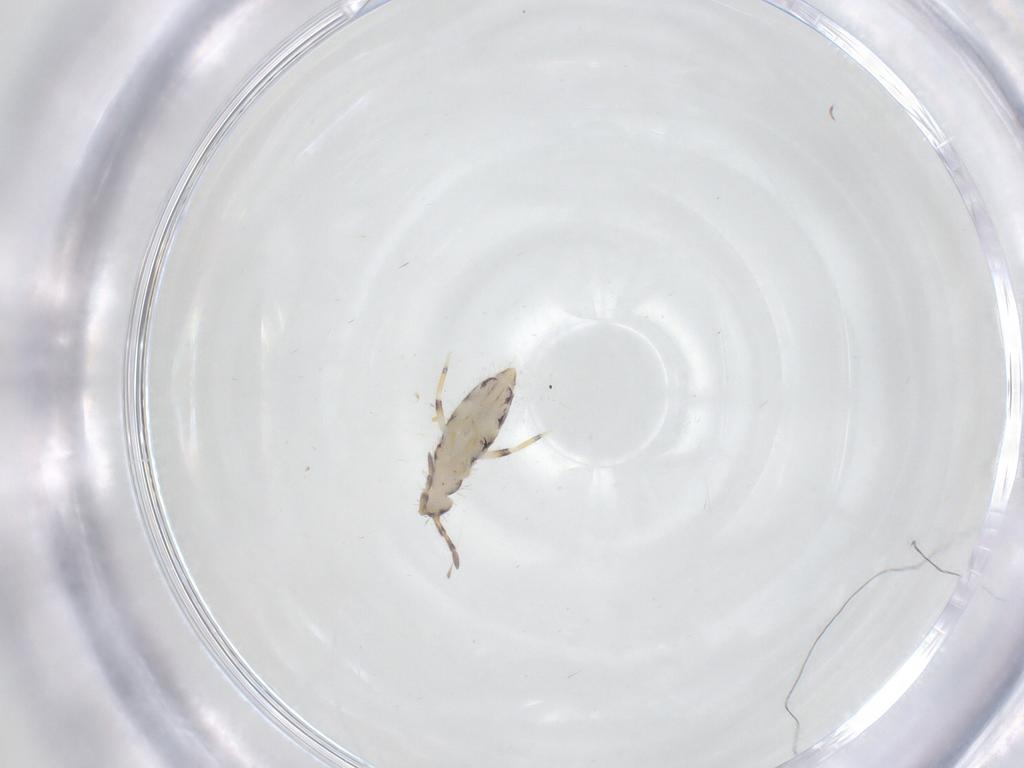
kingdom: Animalia
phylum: Arthropoda
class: Collembola
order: Entomobryomorpha
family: Isotomidae
